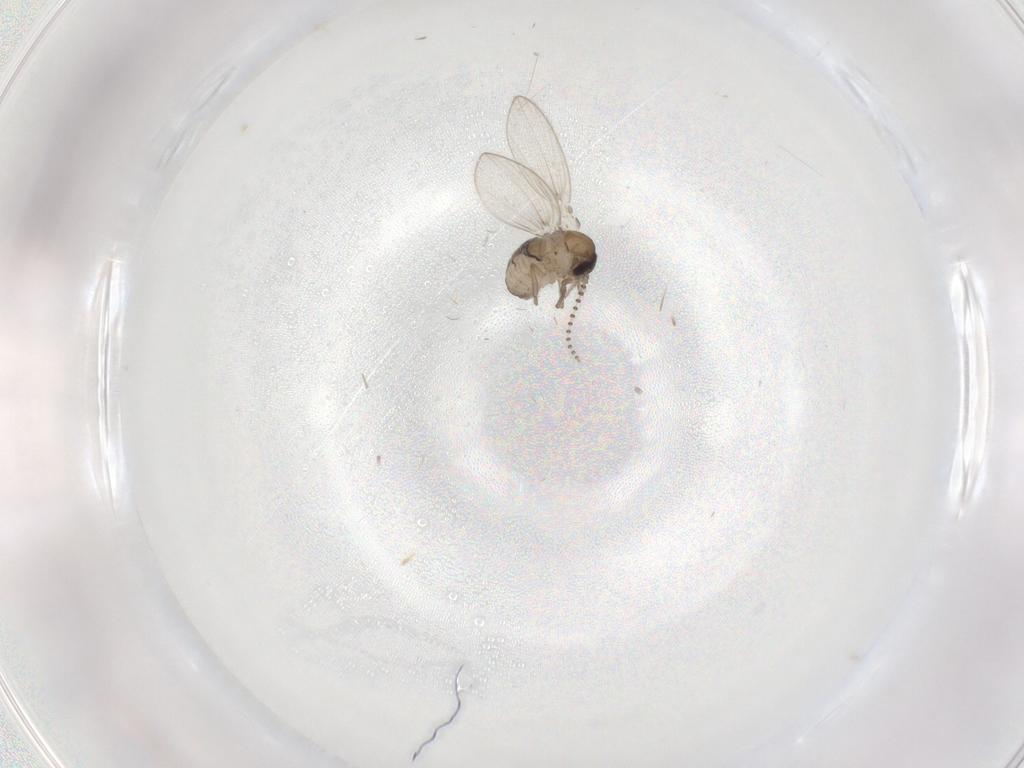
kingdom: Animalia
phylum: Arthropoda
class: Insecta
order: Diptera
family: Psychodidae
